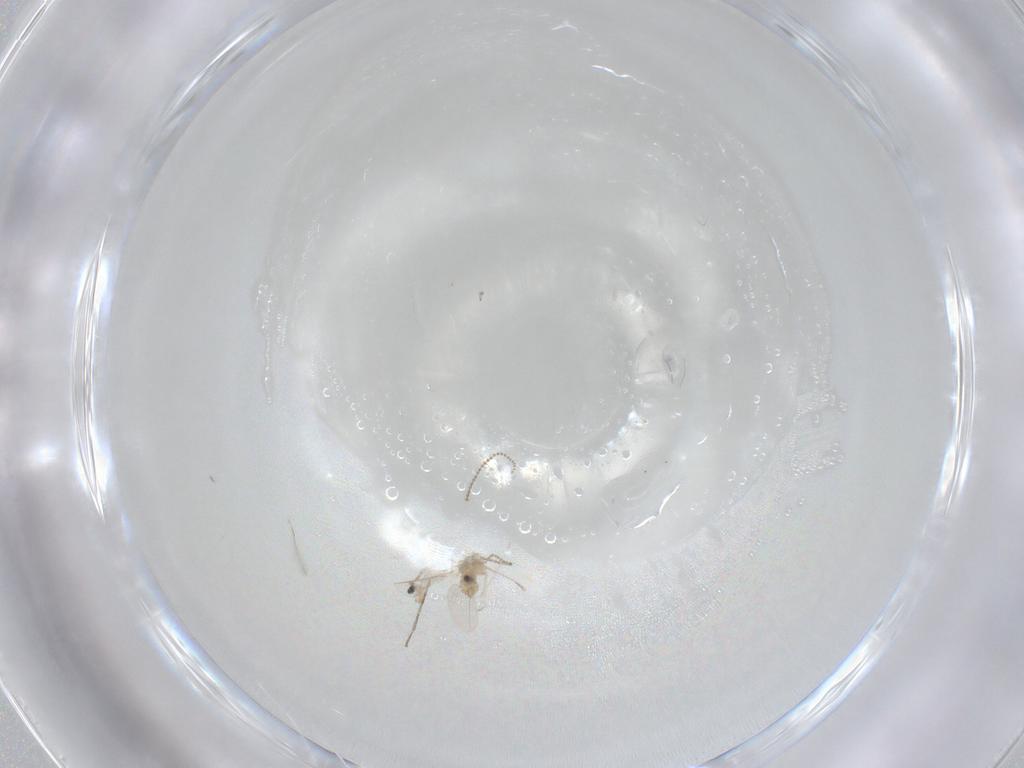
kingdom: Animalia
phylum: Arthropoda
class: Insecta
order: Diptera
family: Cecidomyiidae
